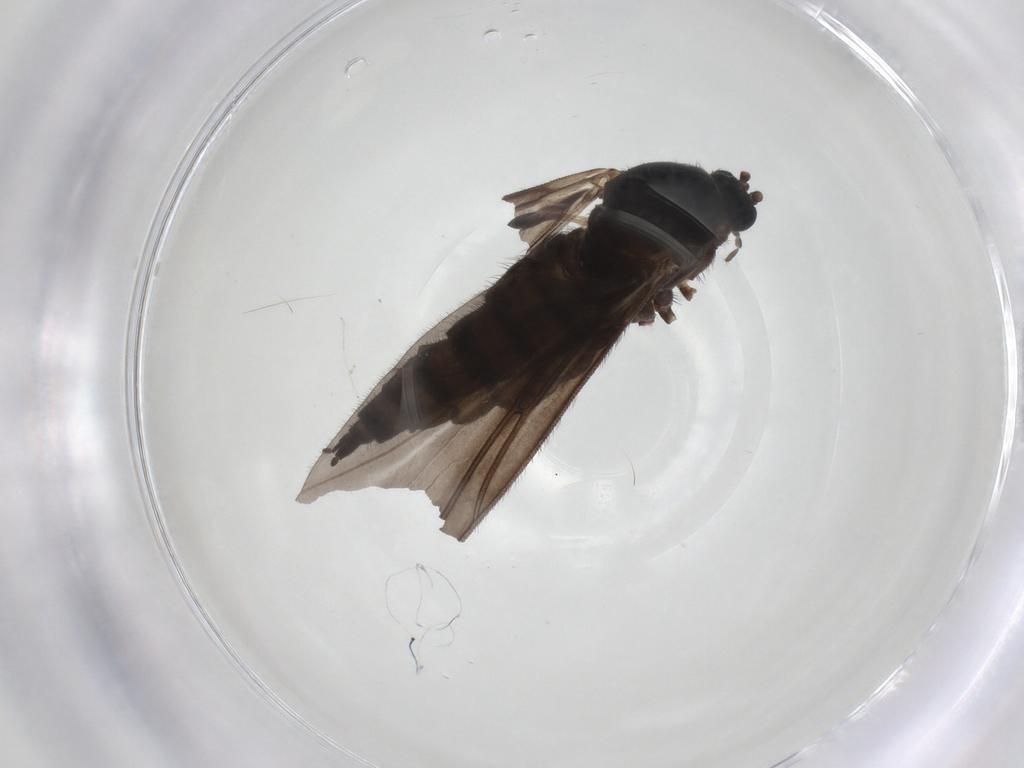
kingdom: Animalia
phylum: Arthropoda
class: Insecta
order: Diptera
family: Sciaridae
